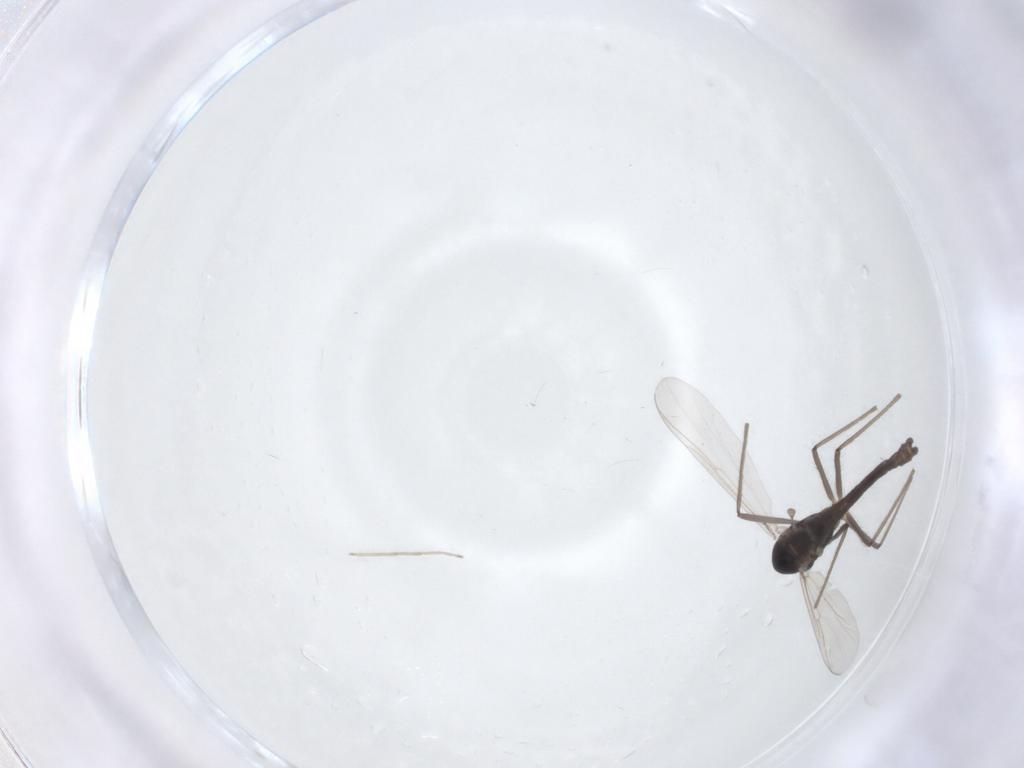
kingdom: Animalia
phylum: Arthropoda
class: Insecta
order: Diptera
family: Chironomidae
